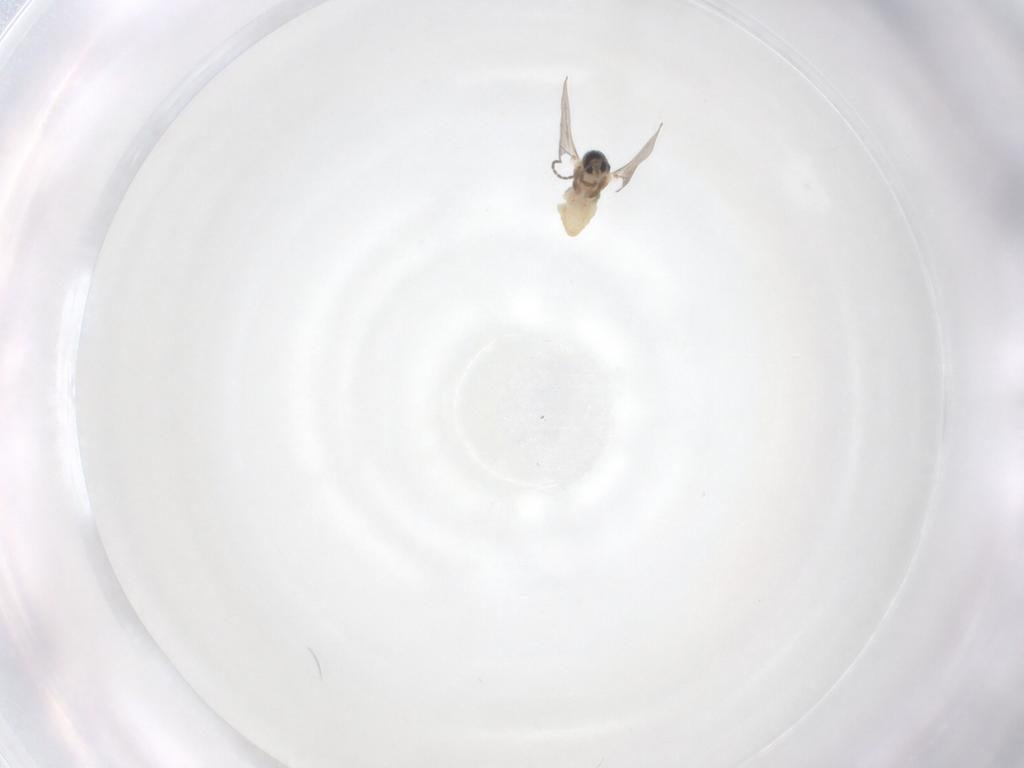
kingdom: Animalia
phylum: Arthropoda
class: Insecta
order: Diptera
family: Cecidomyiidae
